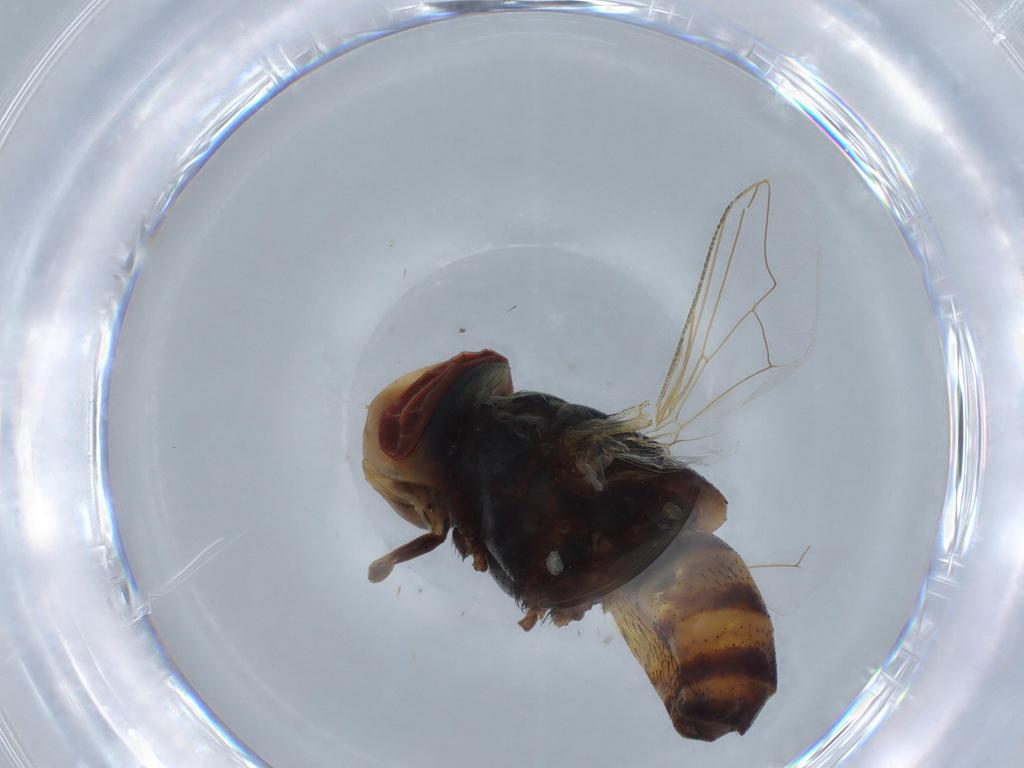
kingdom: Animalia
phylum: Arthropoda
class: Insecta
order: Diptera
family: Chloropidae
